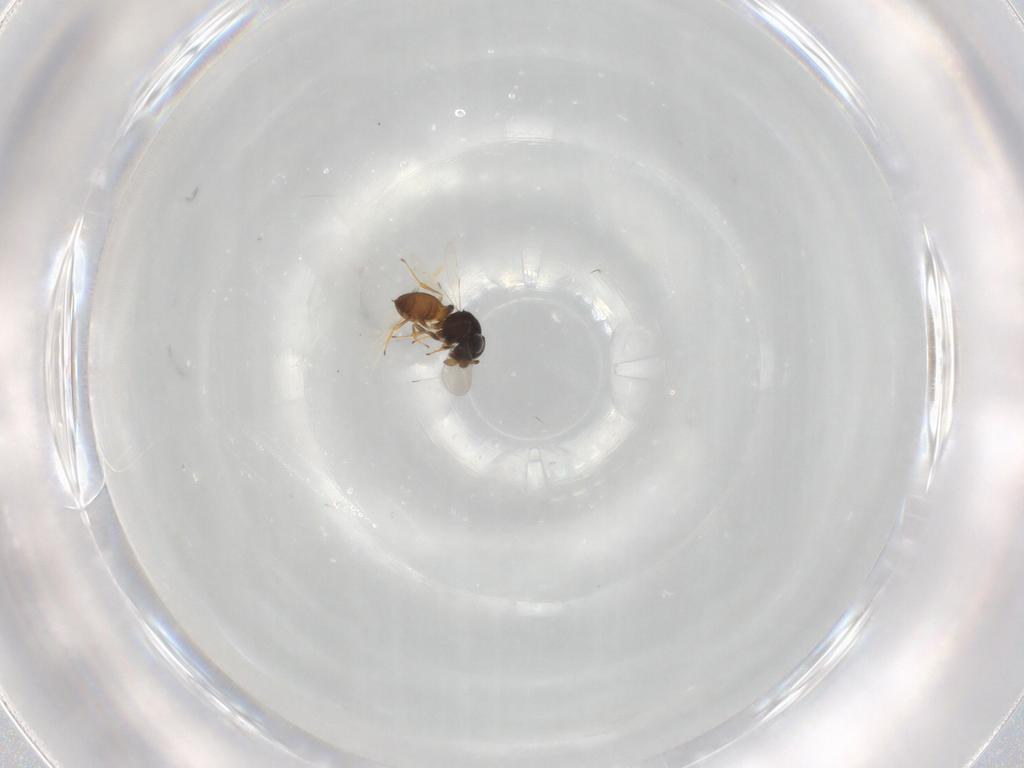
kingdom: Animalia
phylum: Arthropoda
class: Insecta
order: Hymenoptera
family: Scelionidae
